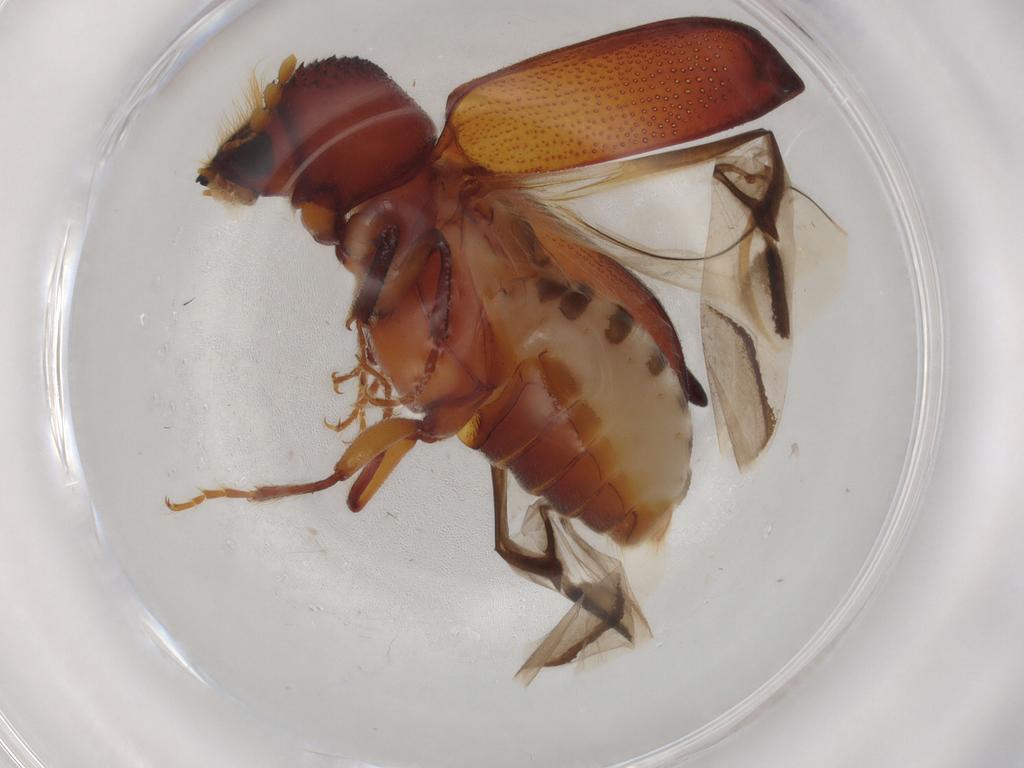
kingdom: Animalia
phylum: Arthropoda
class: Insecta
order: Coleoptera
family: Bostrichidae
